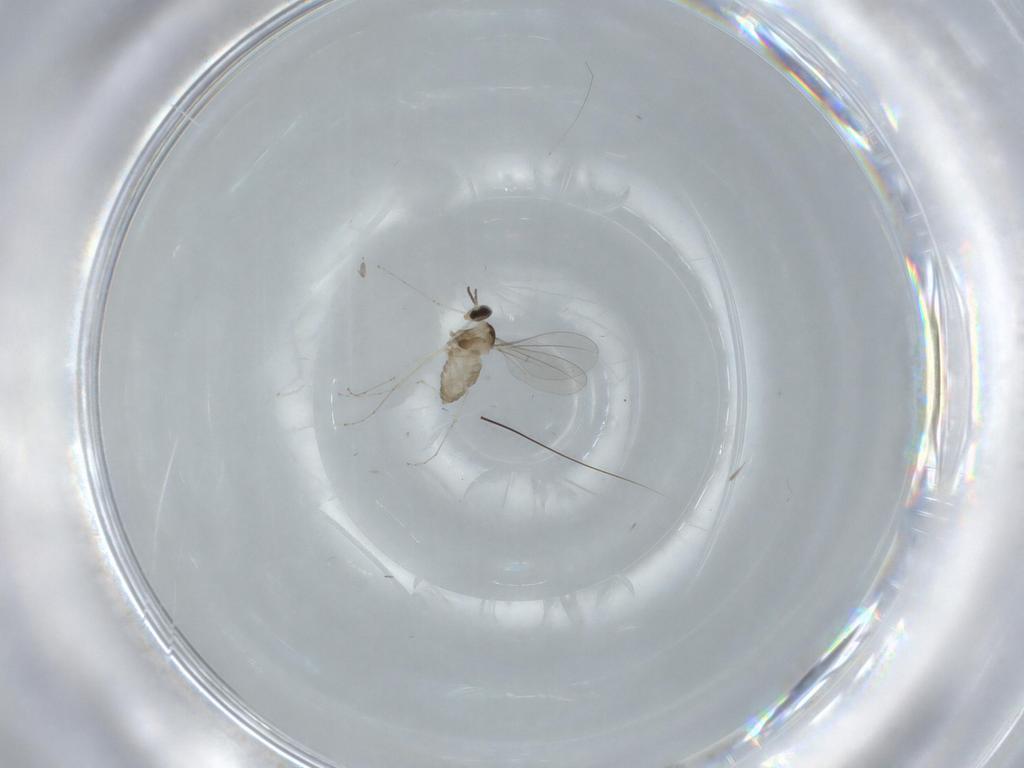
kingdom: Animalia
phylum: Arthropoda
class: Insecta
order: Diptera
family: Cecidomyiidae
